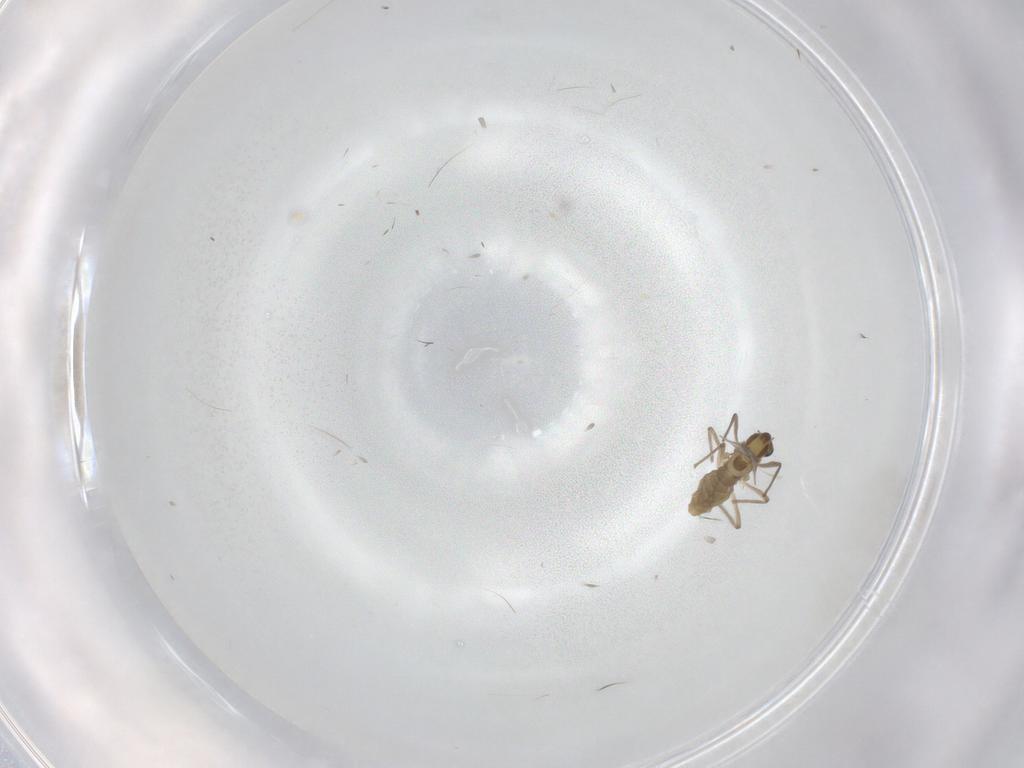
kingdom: Animalia
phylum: Arthropoda
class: Insecta
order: Diptera
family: Chironomidae
